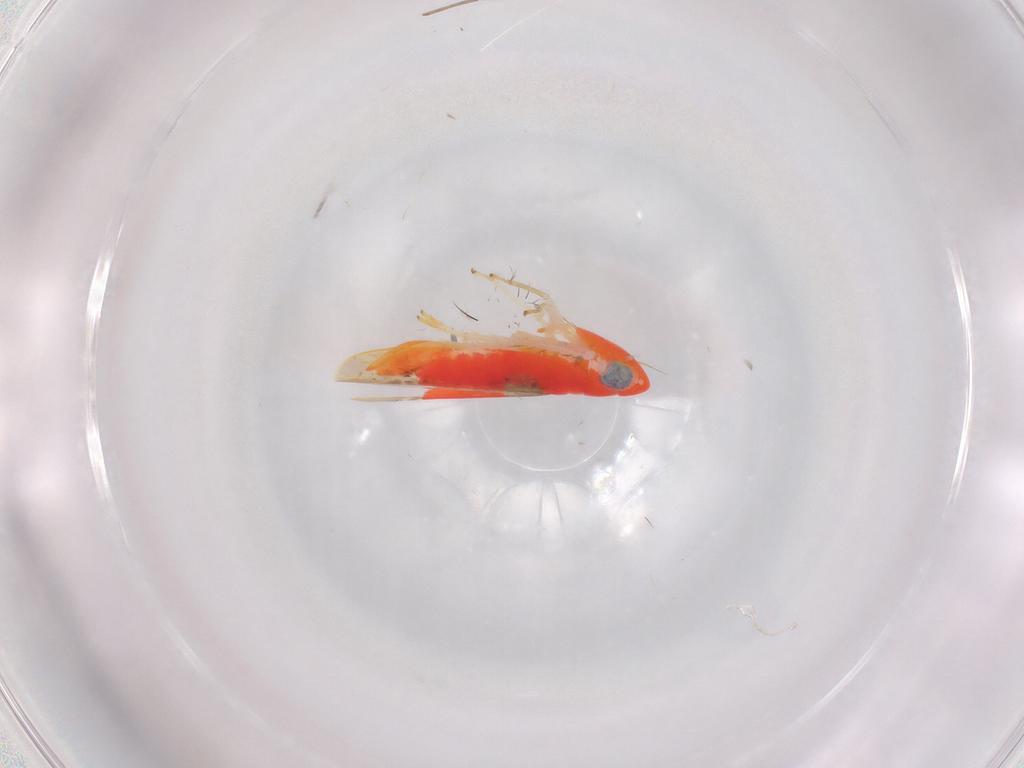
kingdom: Animalia
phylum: Arthropoda
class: Insecta
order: Hemiptera
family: Cicadellidae
